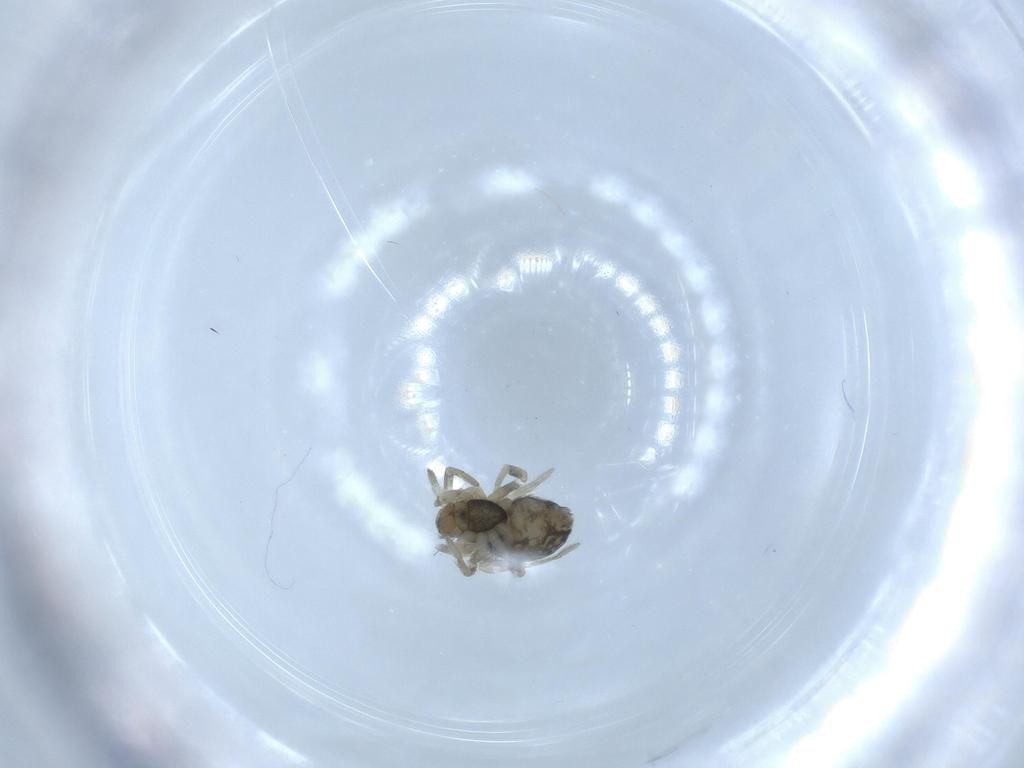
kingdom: Animalia
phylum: Arthropoda
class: Arachnida
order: Araneae
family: Dictynidae
